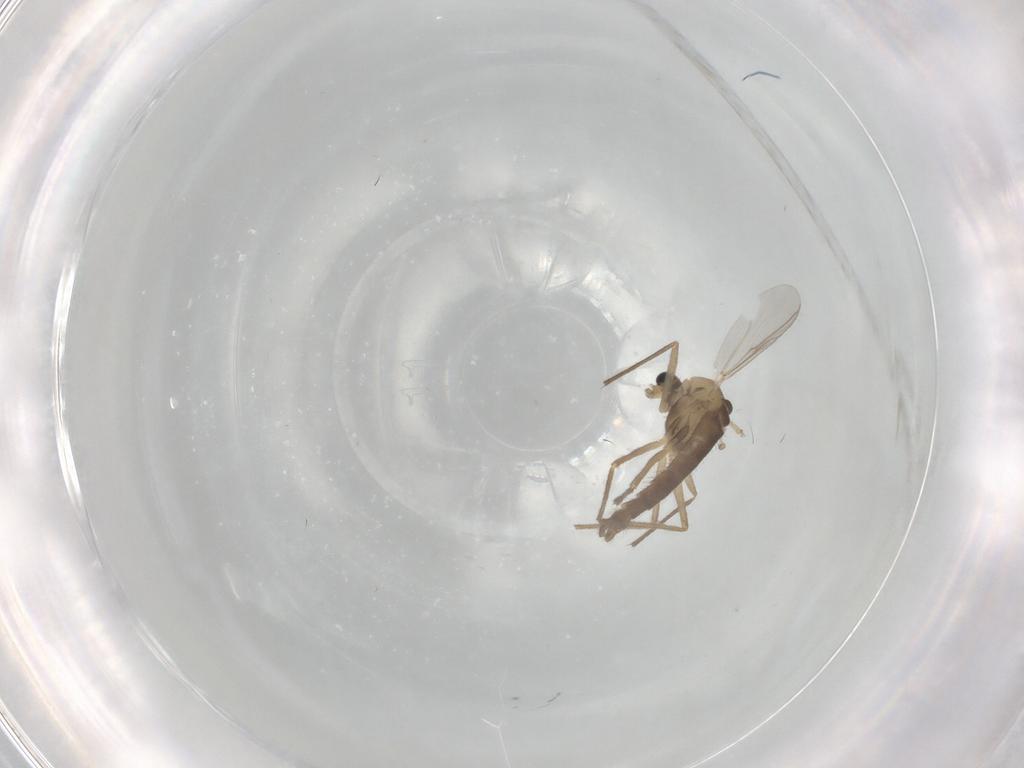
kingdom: Animalia
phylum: Arthropoda
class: Insecta
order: Diptera
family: Chironomidae
